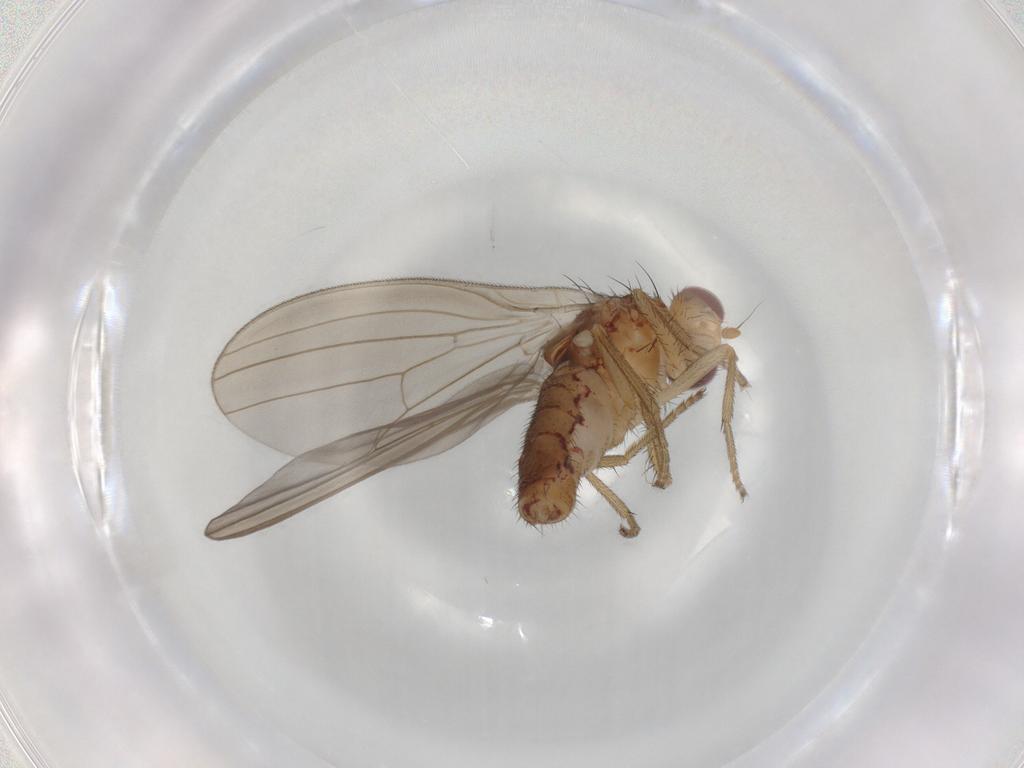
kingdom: Animalia
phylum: Arthropoda
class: Insecta
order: Diptera
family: Natalimyzidae
